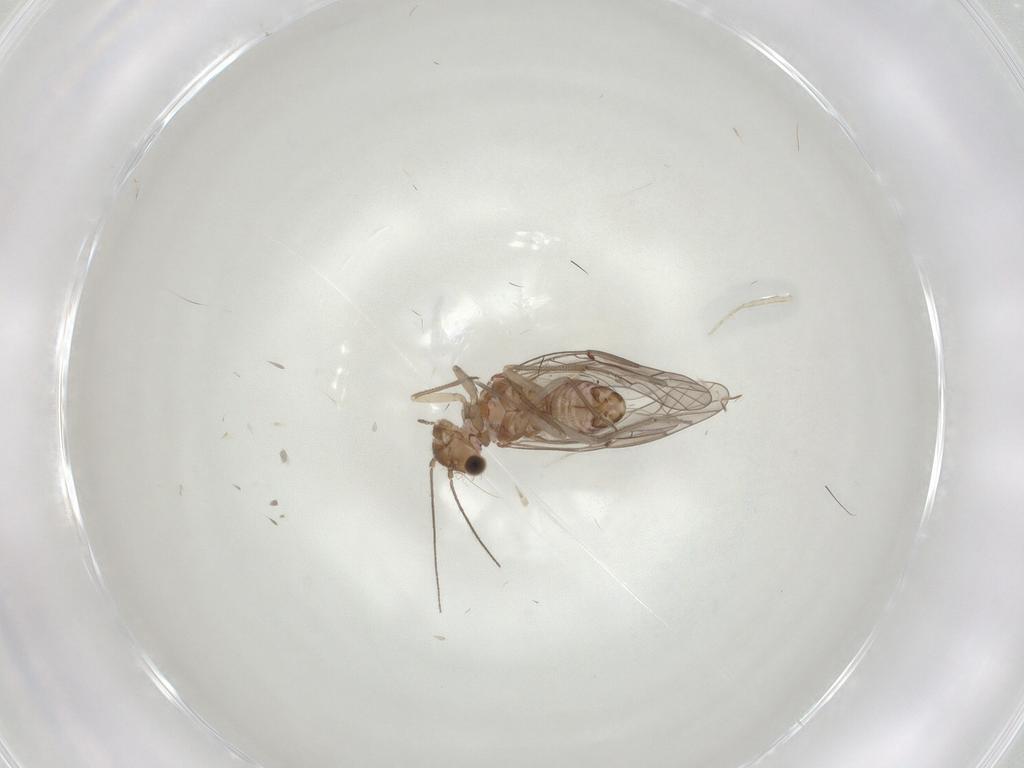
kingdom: Animalia
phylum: Arthropoda
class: Insecta
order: Psocodea
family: Lachesillidae
